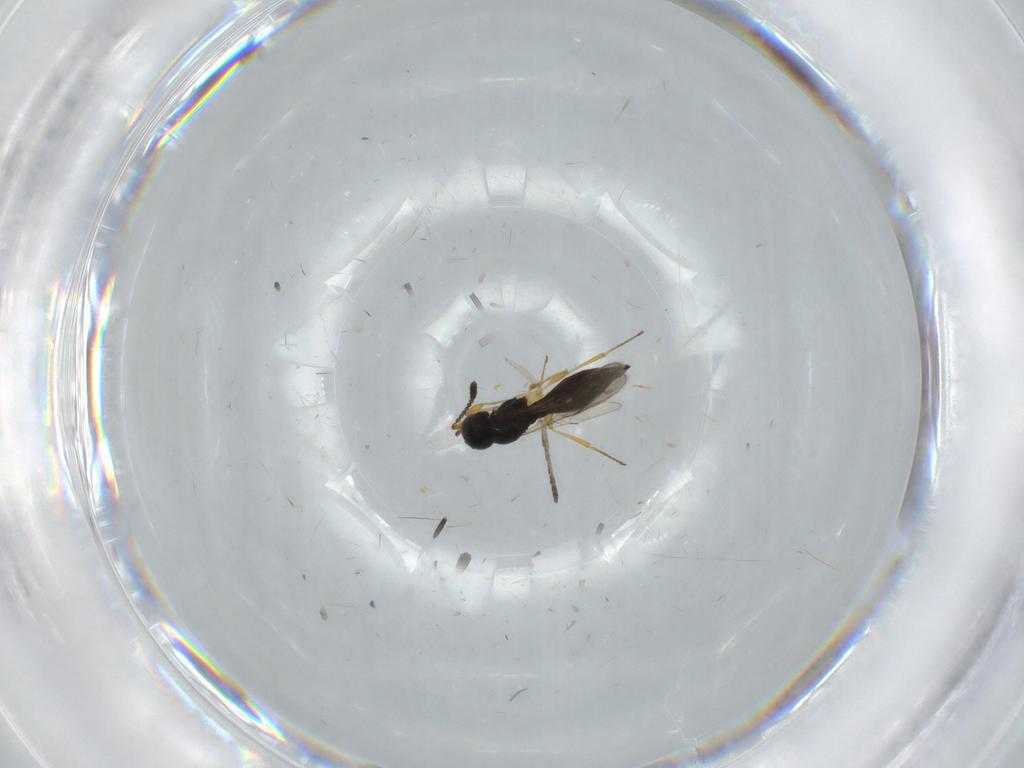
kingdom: Animalia
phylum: Arthropoda
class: Insecta
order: Hymenoptera
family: Scelionidae
